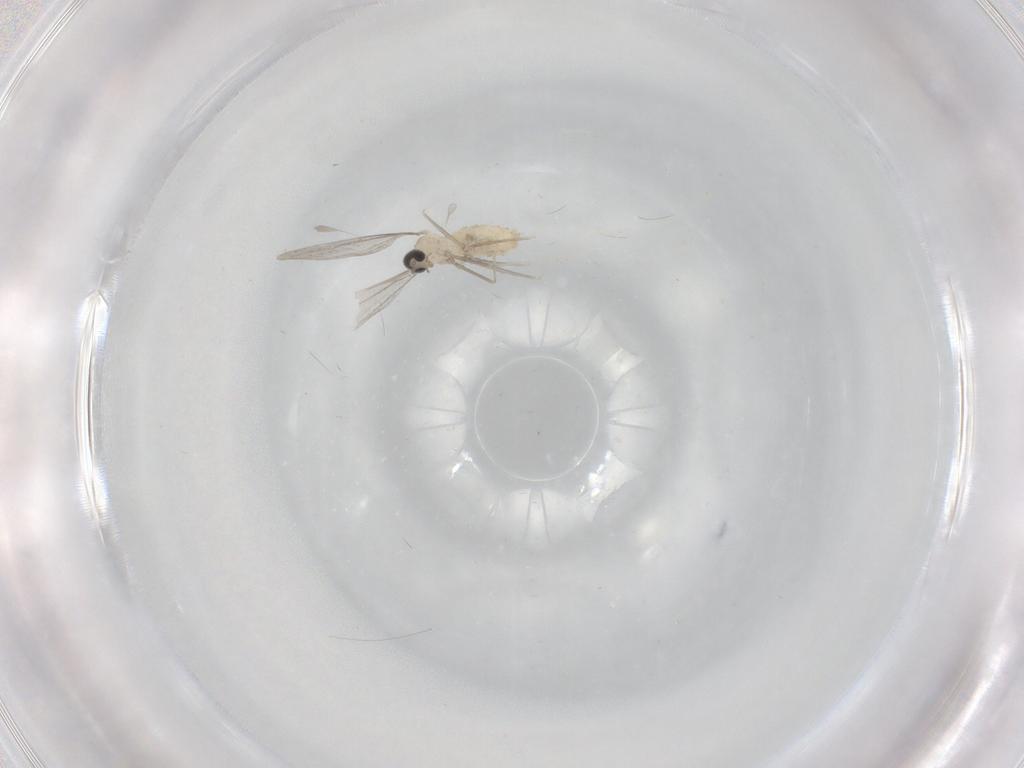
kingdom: Animalia
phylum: Arthropoda
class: Insecta
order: Diptera
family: Cecidomyiidae
